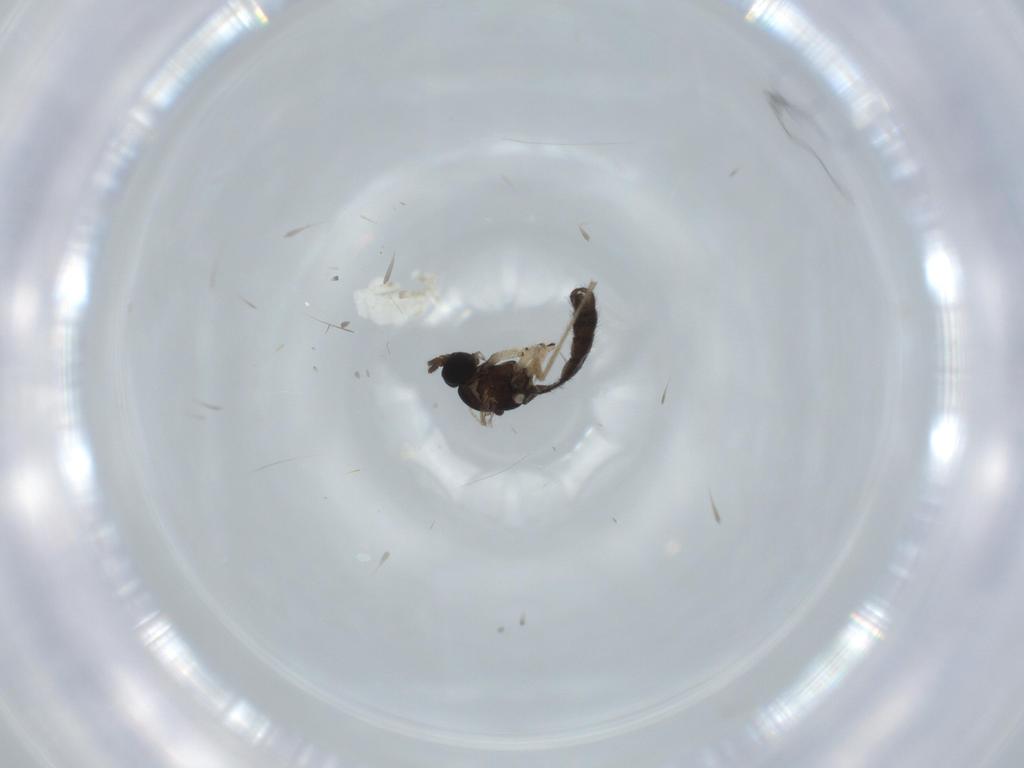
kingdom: Animalia
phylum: Arthropoda
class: Insecta
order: Diptera
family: Sciaridae
